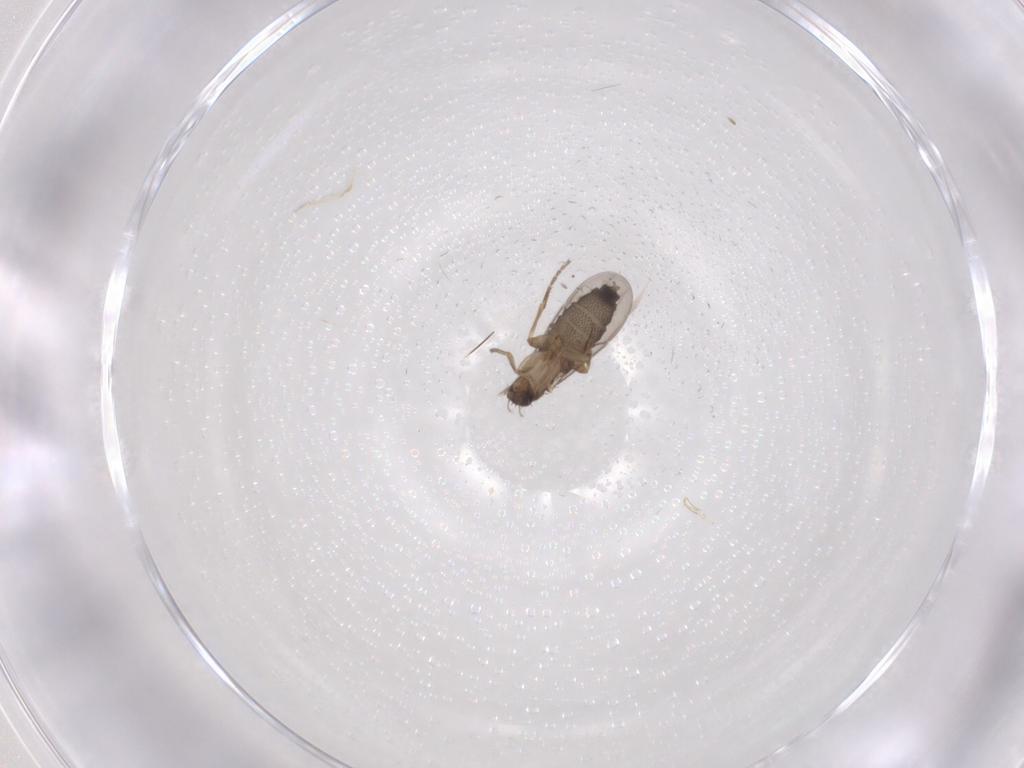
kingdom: Animalia
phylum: Arthropoda
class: Insecta
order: Diptera
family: Phoridae
